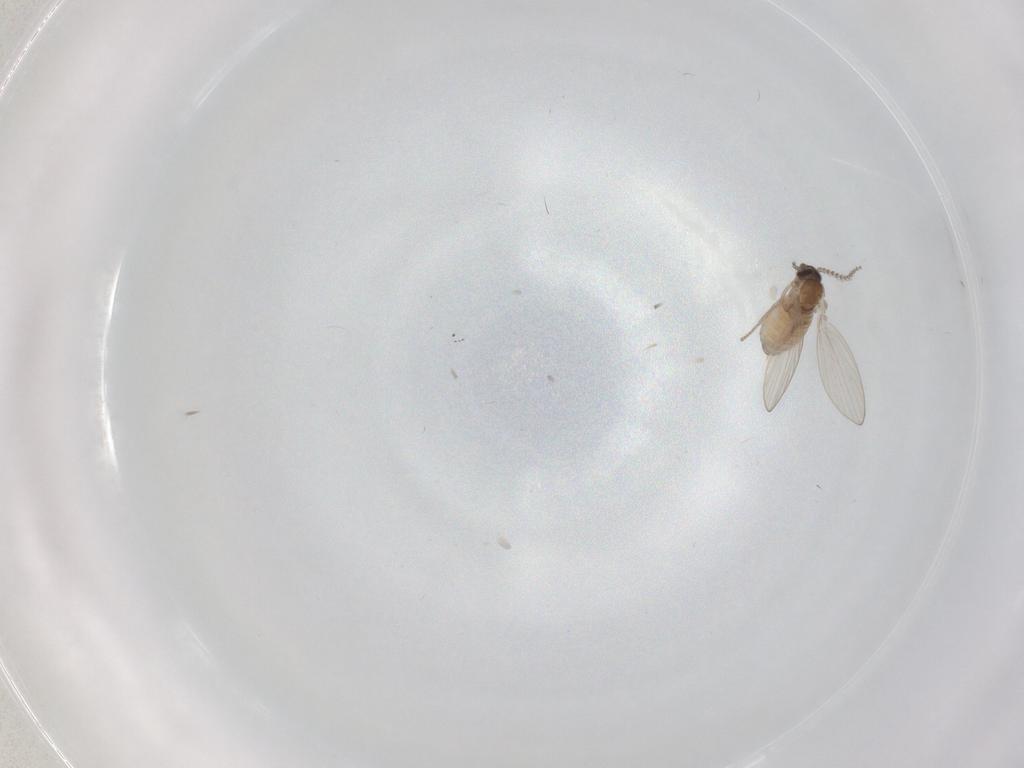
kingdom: Animalia
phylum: Arthropoda
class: Insecta
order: Diptera
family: Psychodidae
